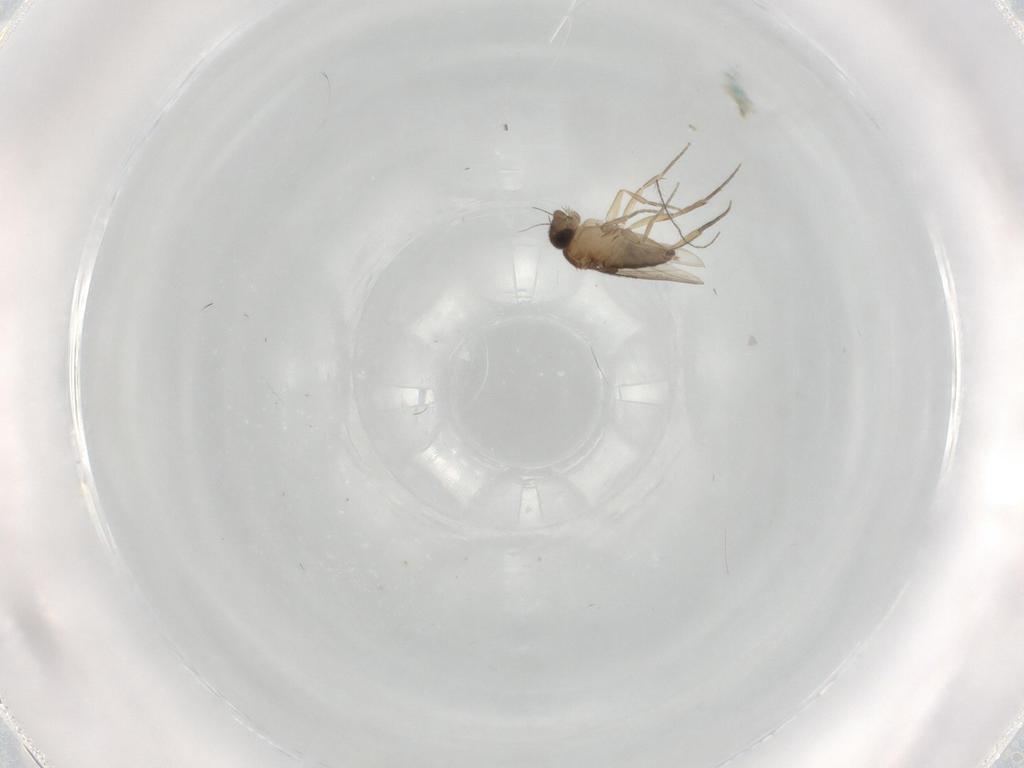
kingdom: Animalia
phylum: Arthropoda
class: Insecta
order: Diptera
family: Phoridae
